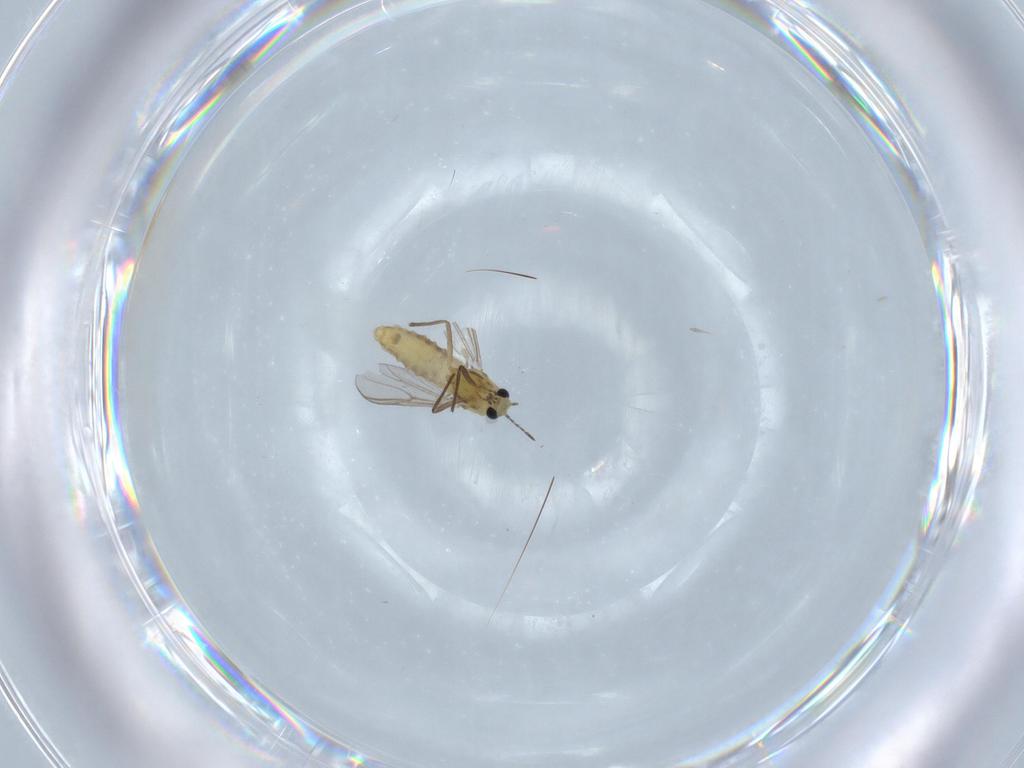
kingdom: Animalia
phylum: Arthropoda
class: Insecta
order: Diptera
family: Chironomidae
